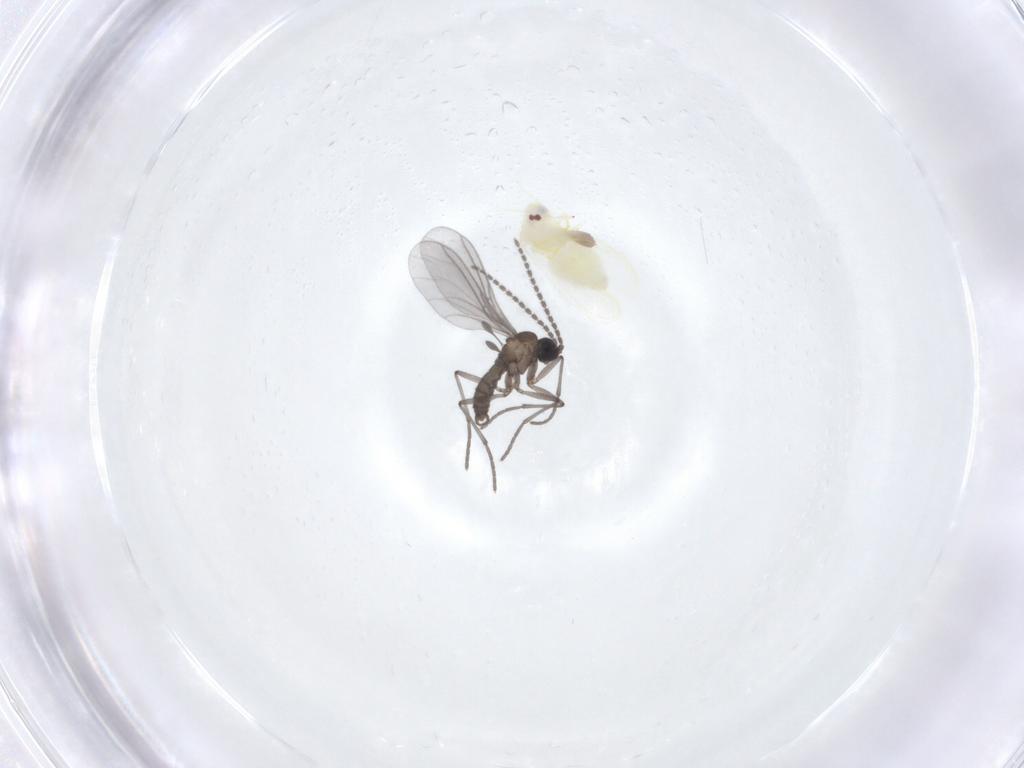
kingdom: Animalia
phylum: Arthropoda
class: Insecta
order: Hemiptera
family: Aleyrodidae
